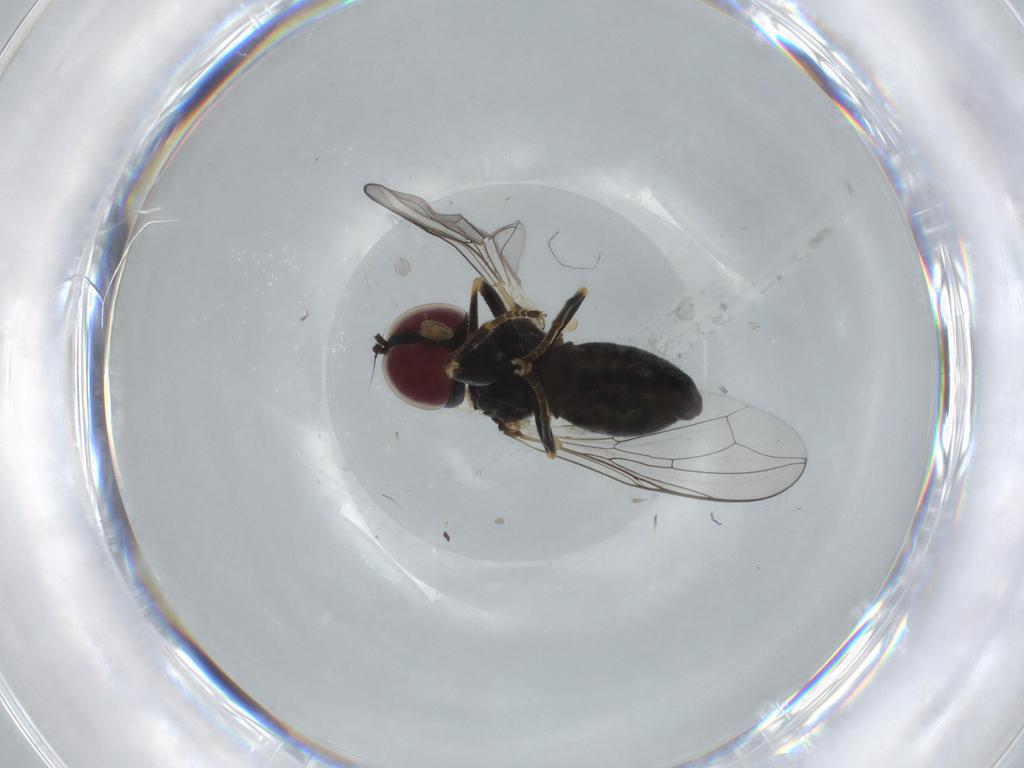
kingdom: Animalia
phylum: Arthropoda
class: Insecta
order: Diptera
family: Pipunculidae
